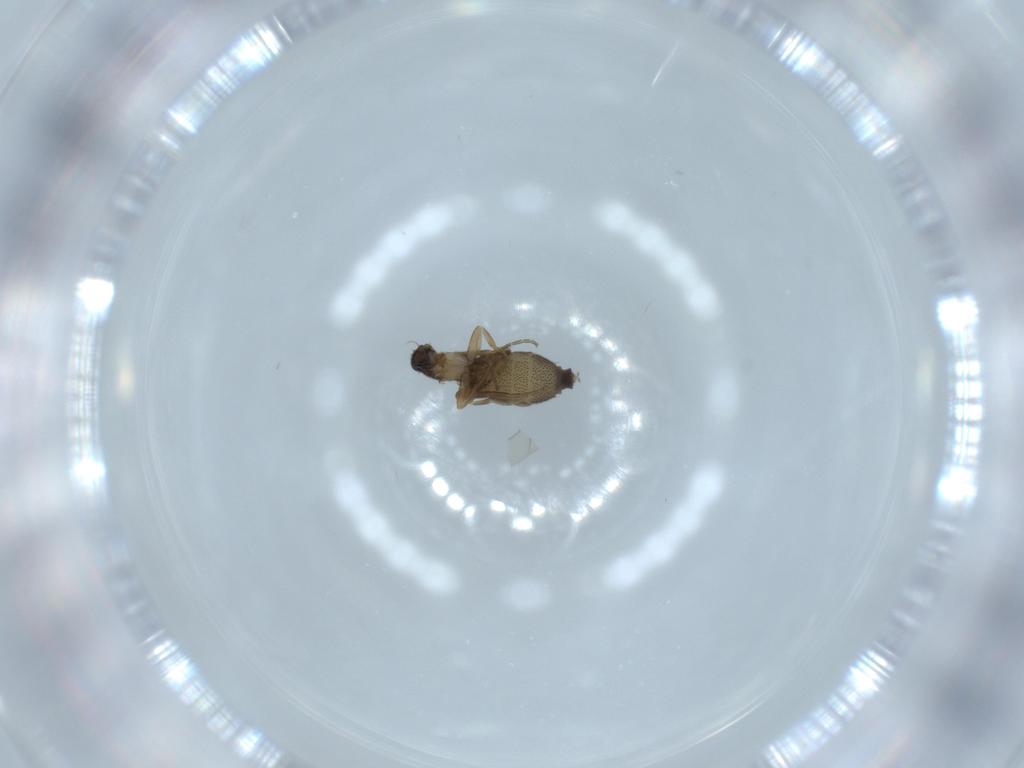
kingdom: Animalia
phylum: Arthropoda
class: Insecta
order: Diptera
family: Phoridae
